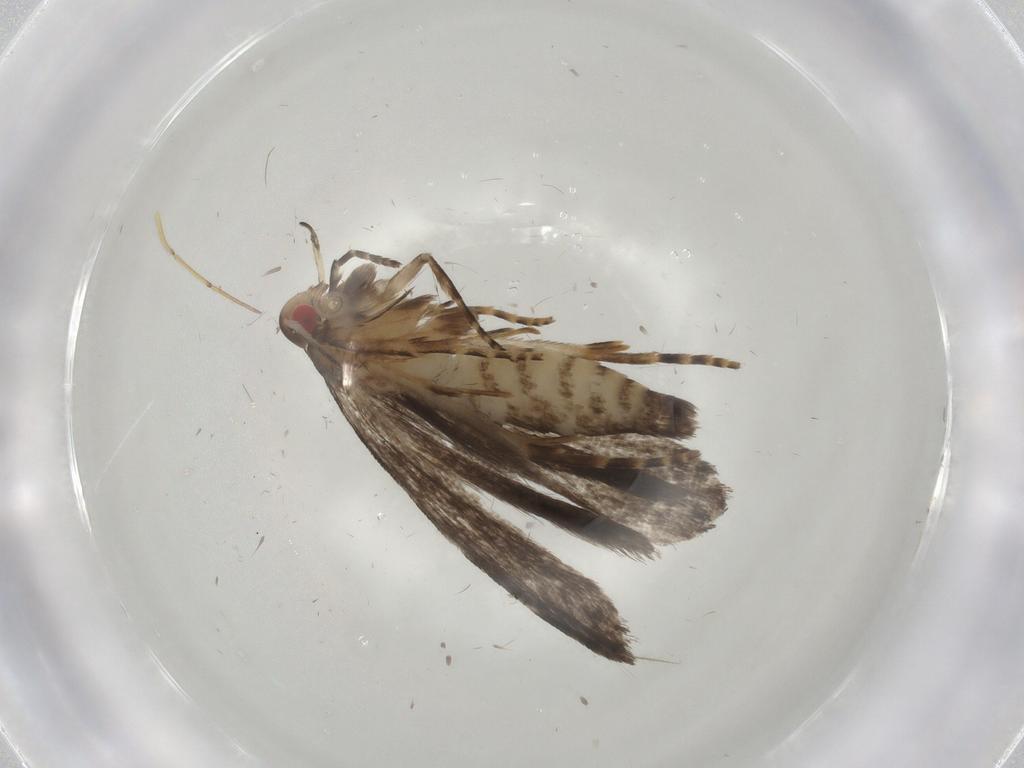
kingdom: Animalia
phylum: Arthropoda
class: Insecta
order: Lepidoptera
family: Gelechiidae
